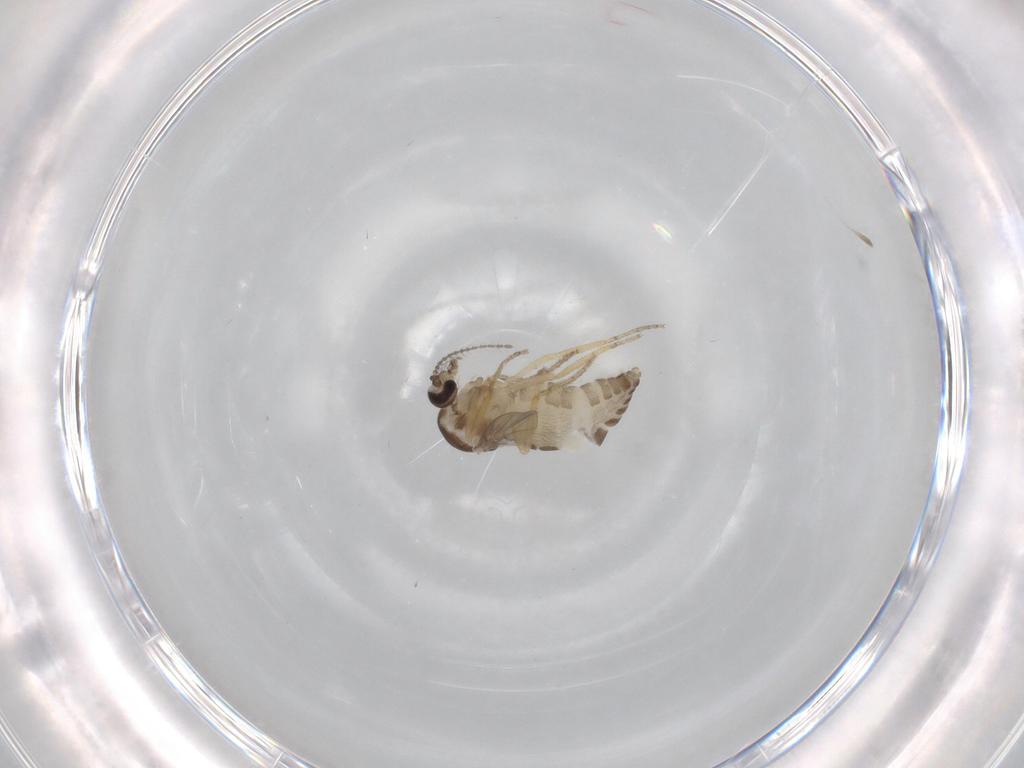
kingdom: Animalia
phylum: Arthropoda
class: Insecta
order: Diptera
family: Ceratopogonidae
